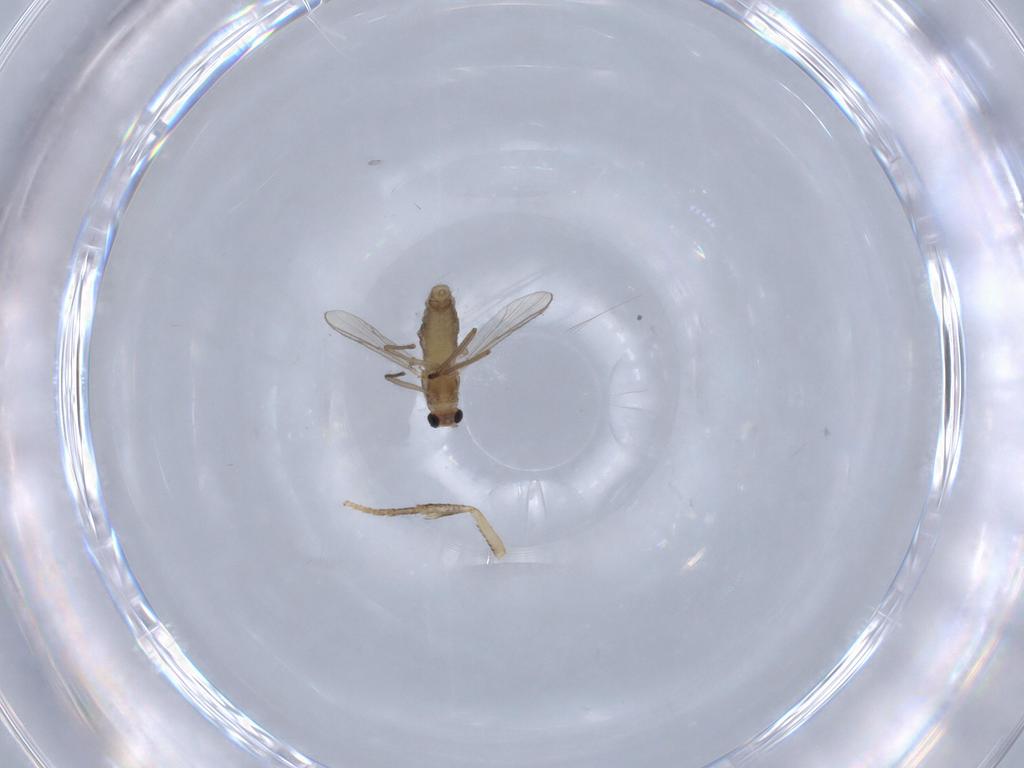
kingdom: Animalia
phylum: Arthropoda
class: Insecta
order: Diptera
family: Chironomidae
